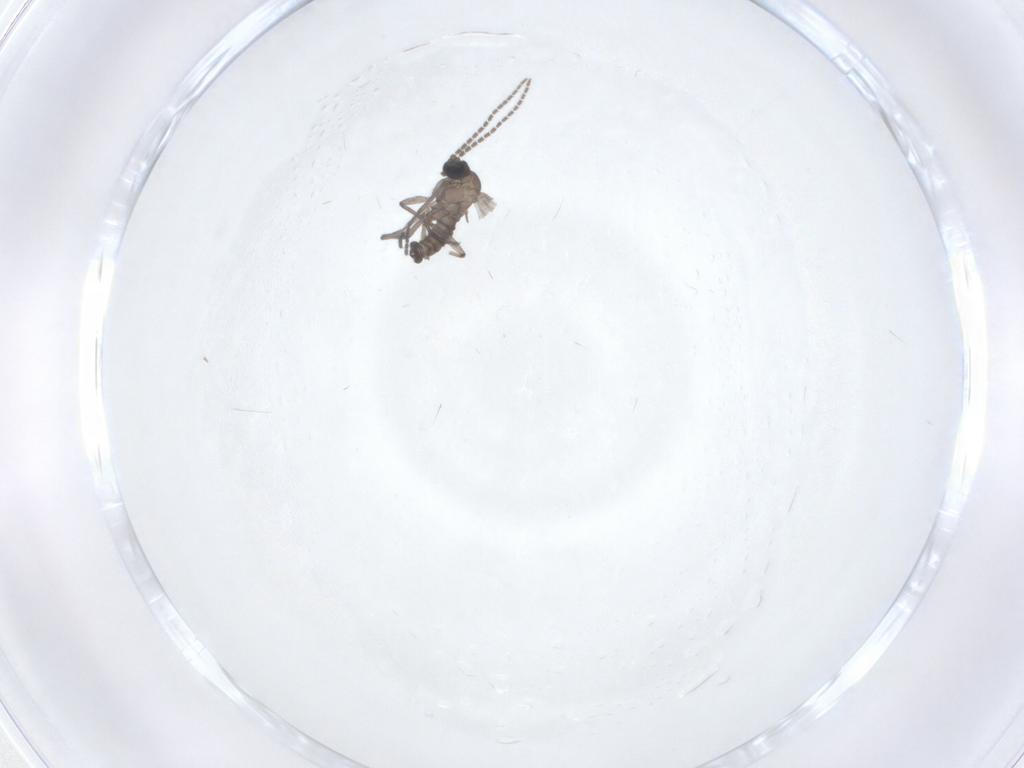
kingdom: Animalia
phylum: Arthropoda
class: Insecta
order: Diptera
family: Sciaridae
